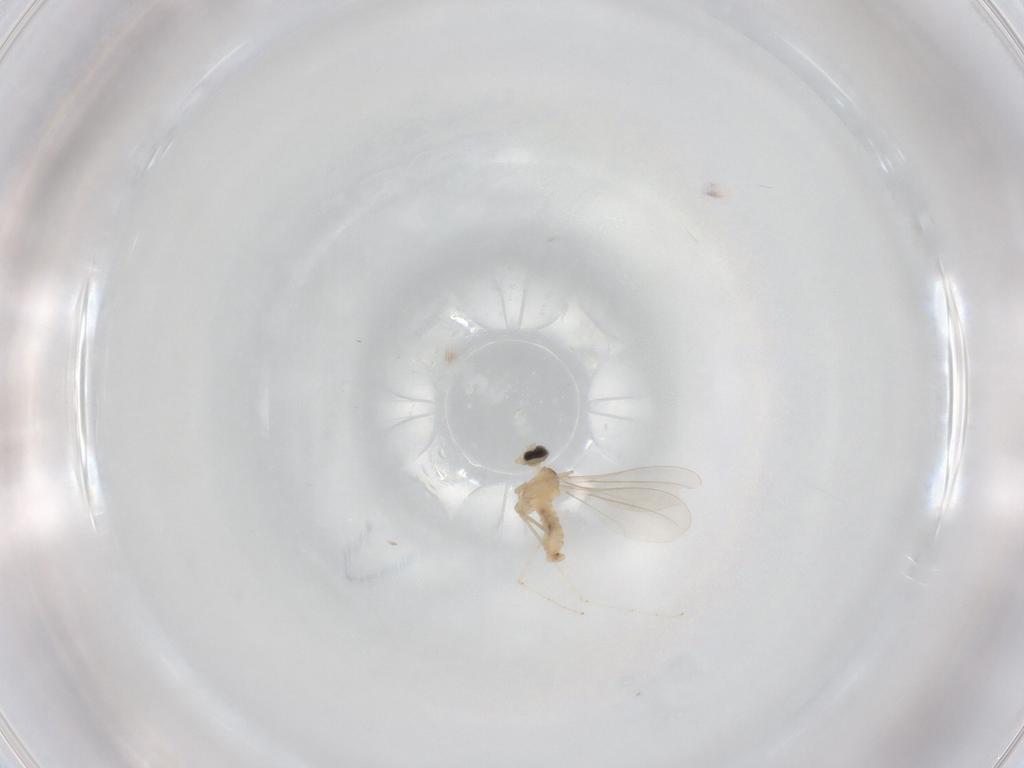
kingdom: Animalia
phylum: Arthropoda
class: Insecta
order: Diptera
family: Cecidomyiidae
